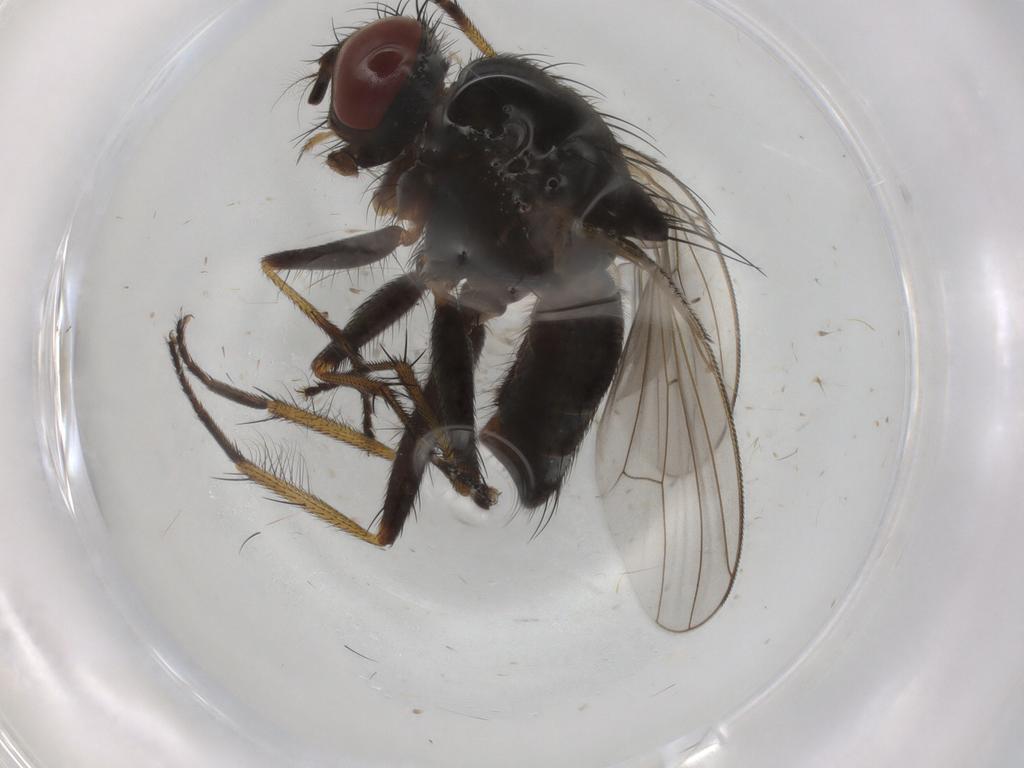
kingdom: Animalia
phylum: Arthropoda
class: Insecta
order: Diptera
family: Muscidae
